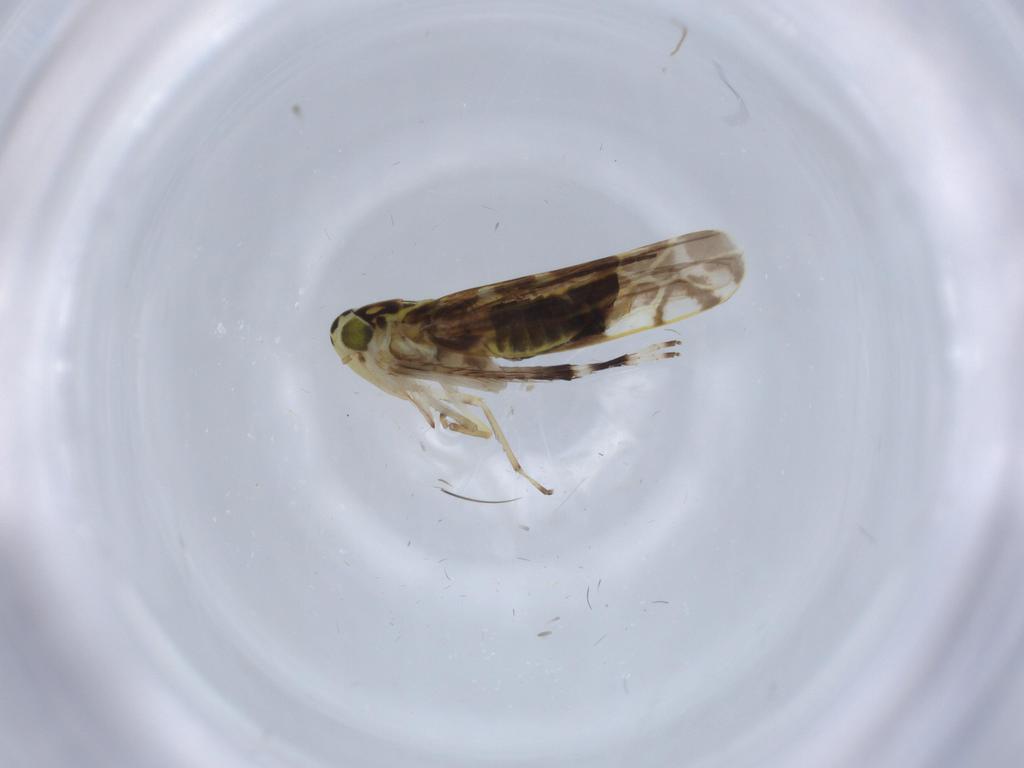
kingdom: Animalia
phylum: Arthropoda
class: Insecta
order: Hemiptera
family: Cicadellidae
